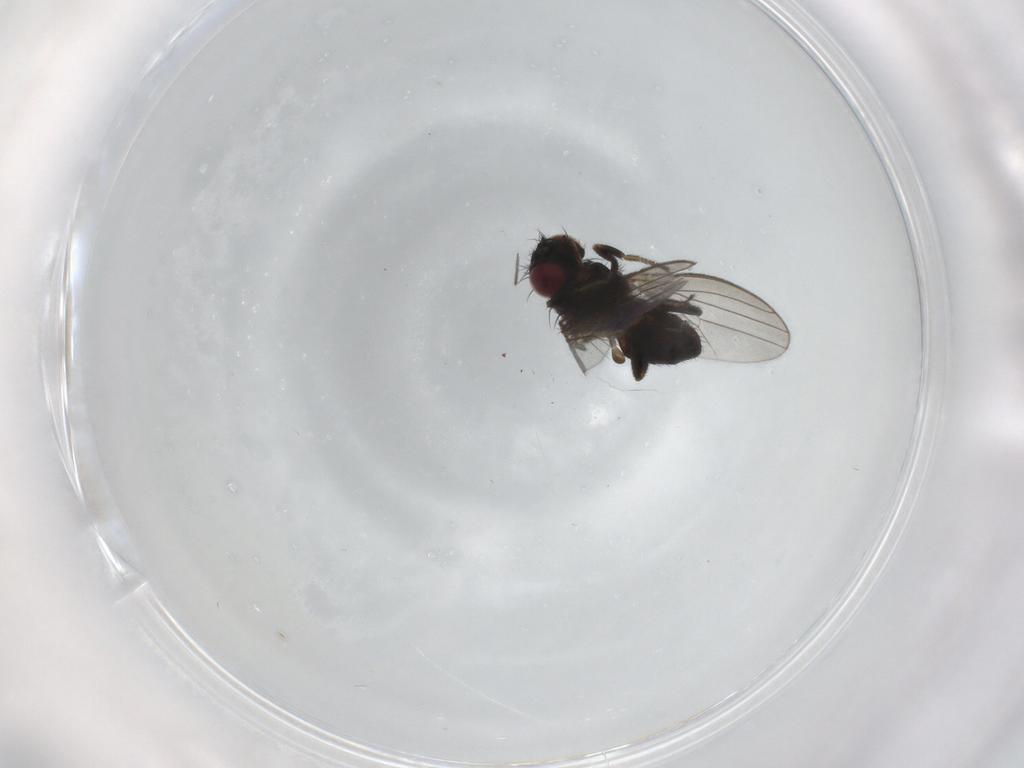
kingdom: Animalia
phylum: Arthropoda
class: Insecta
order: Diptera
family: Milichiidae
